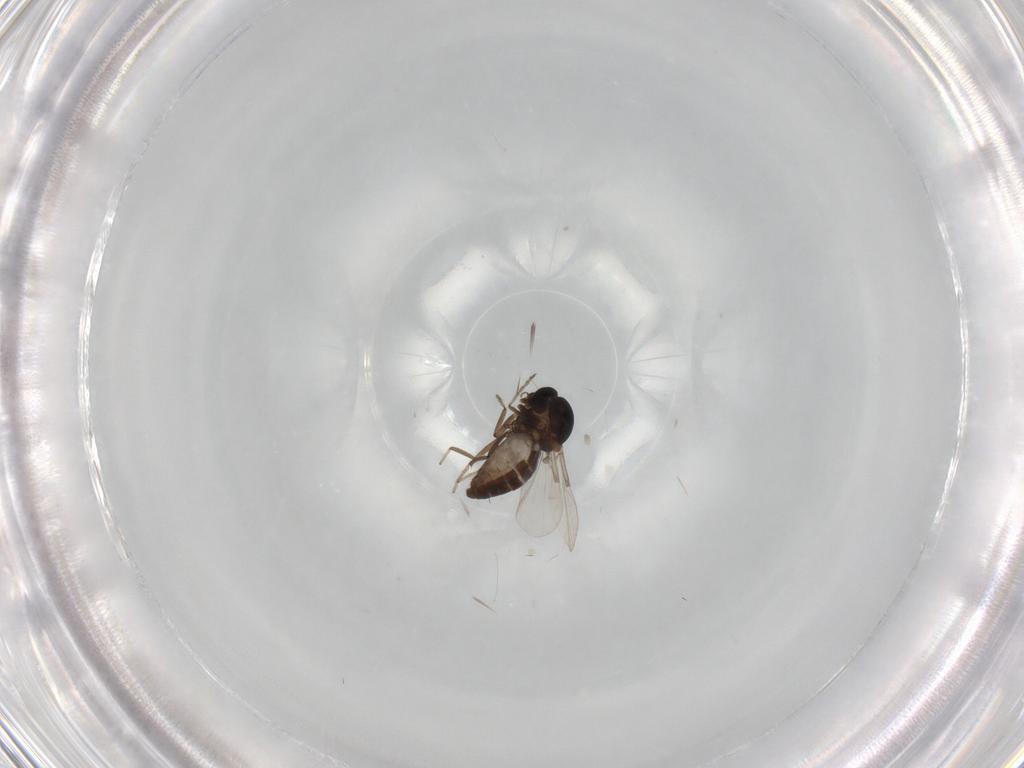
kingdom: Animalia
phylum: Arthropoda
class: Insecta
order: Diptera
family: Ceratopogonidae
